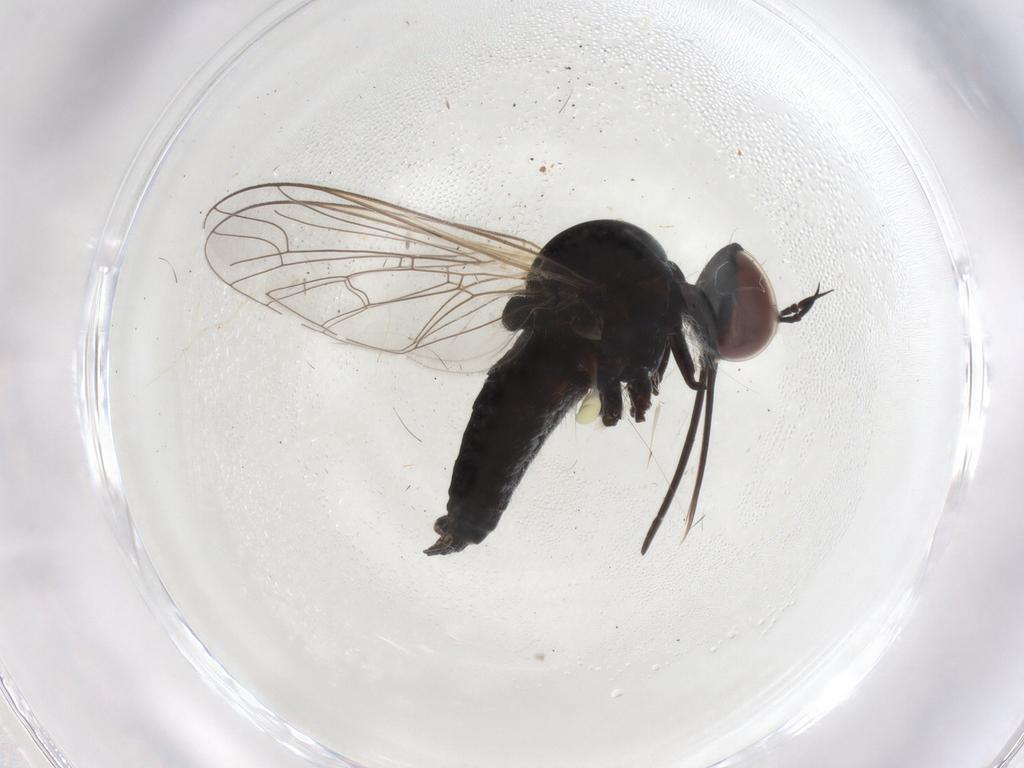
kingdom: Animalia
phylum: Arthropoda
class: Insecta
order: Diptera
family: Bombyliidae
